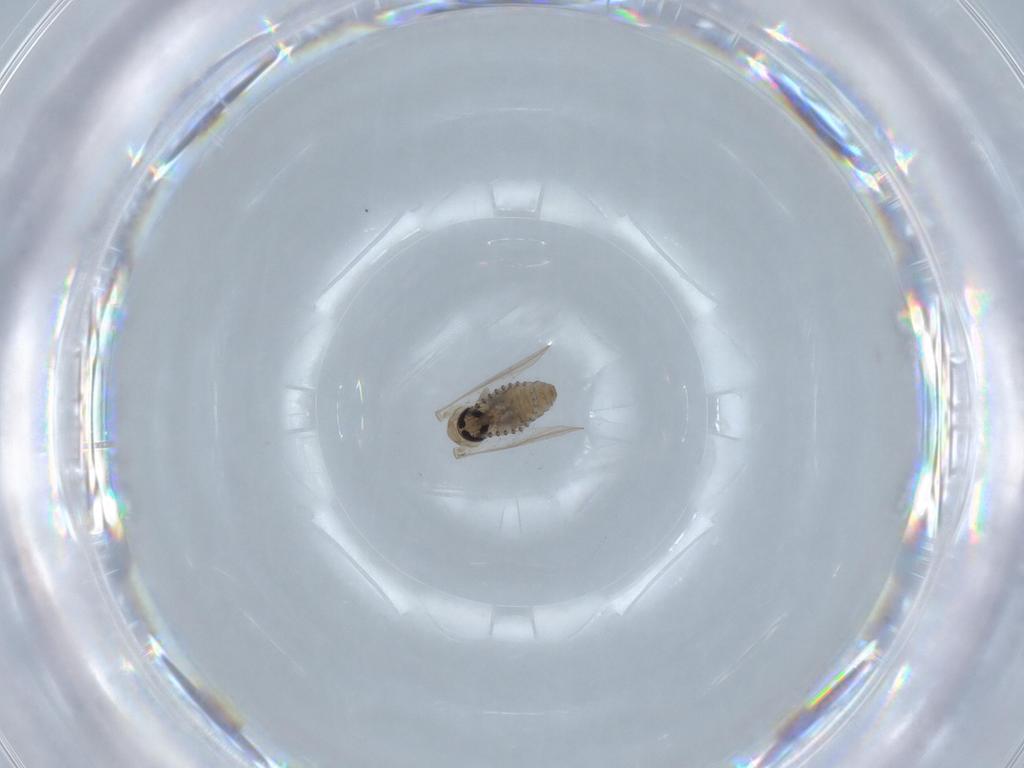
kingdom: Animalia
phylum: Arthropoda
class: Insecta
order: Diptera
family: Psychodidae
